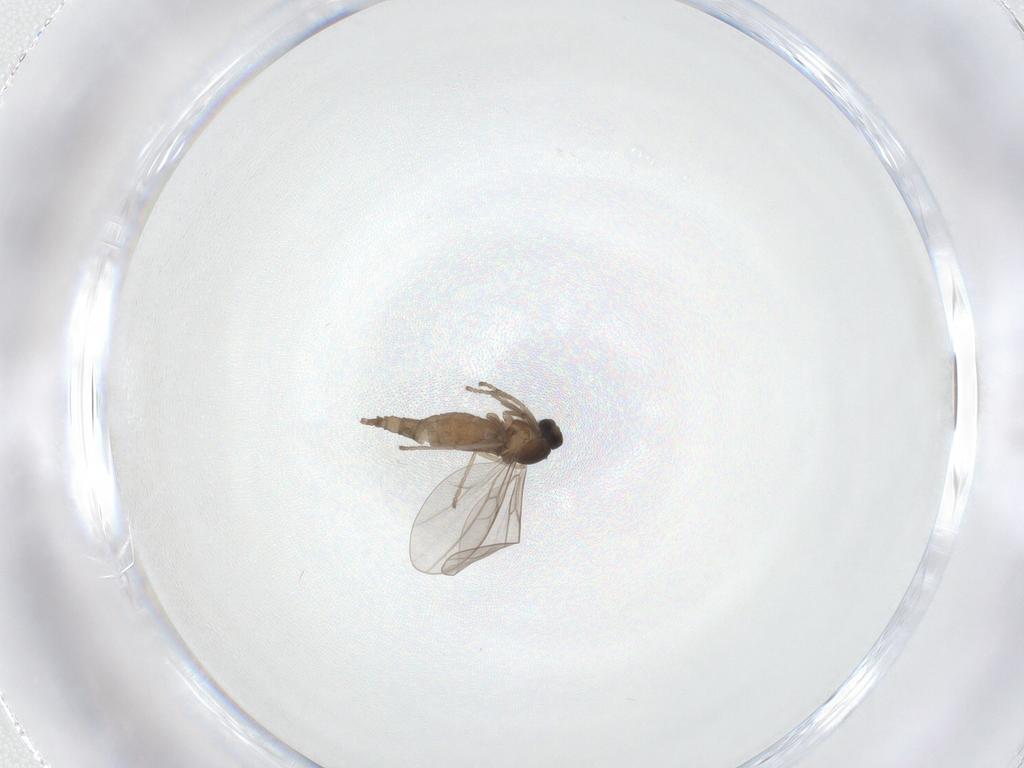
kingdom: Animalia
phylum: Arthropoda
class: Insecta
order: Diptera
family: Cecidomyiidae
